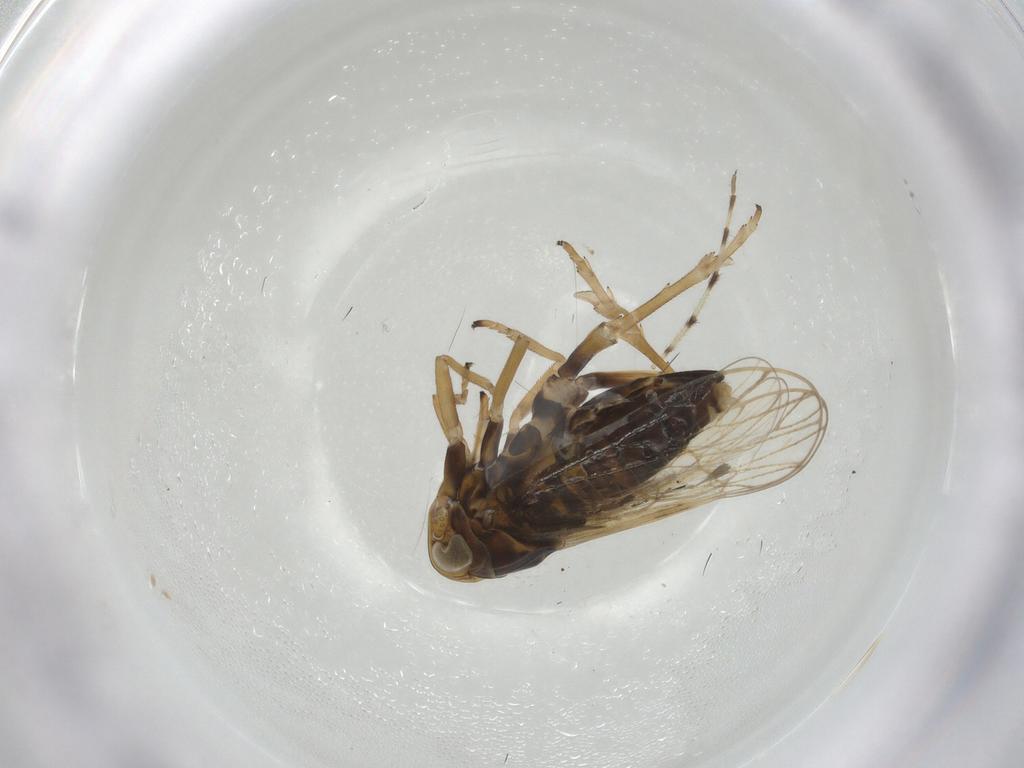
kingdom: Animalia
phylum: Arthropoda
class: Insecta
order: Hemiptera
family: Delphacidae
